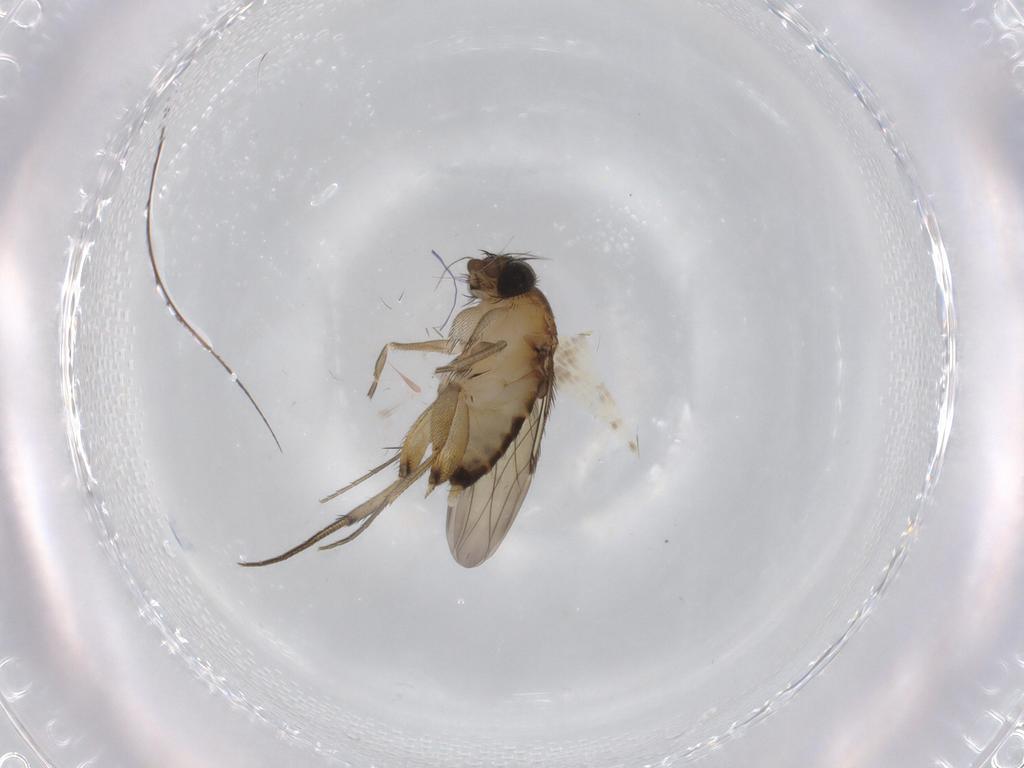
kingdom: Animalia
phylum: Arthropoda
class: Insecta
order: Diptera
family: Phoridae
